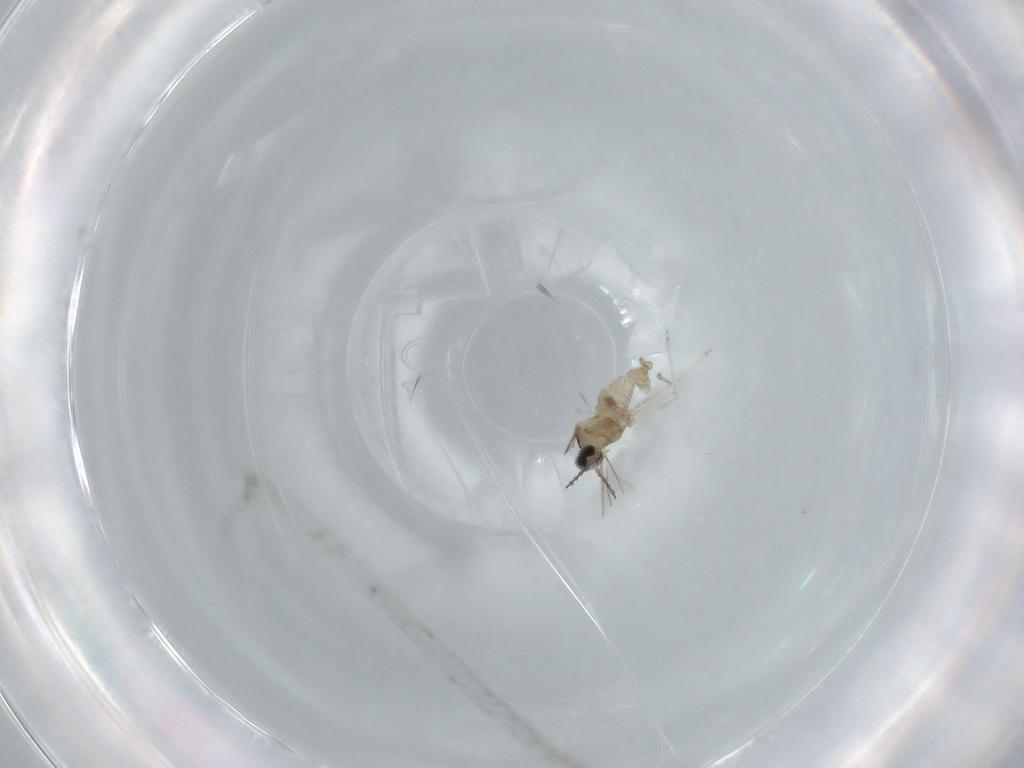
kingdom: Animalia
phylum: Arthropoda
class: Insecta
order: Diptera
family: Cecidomyiidae
